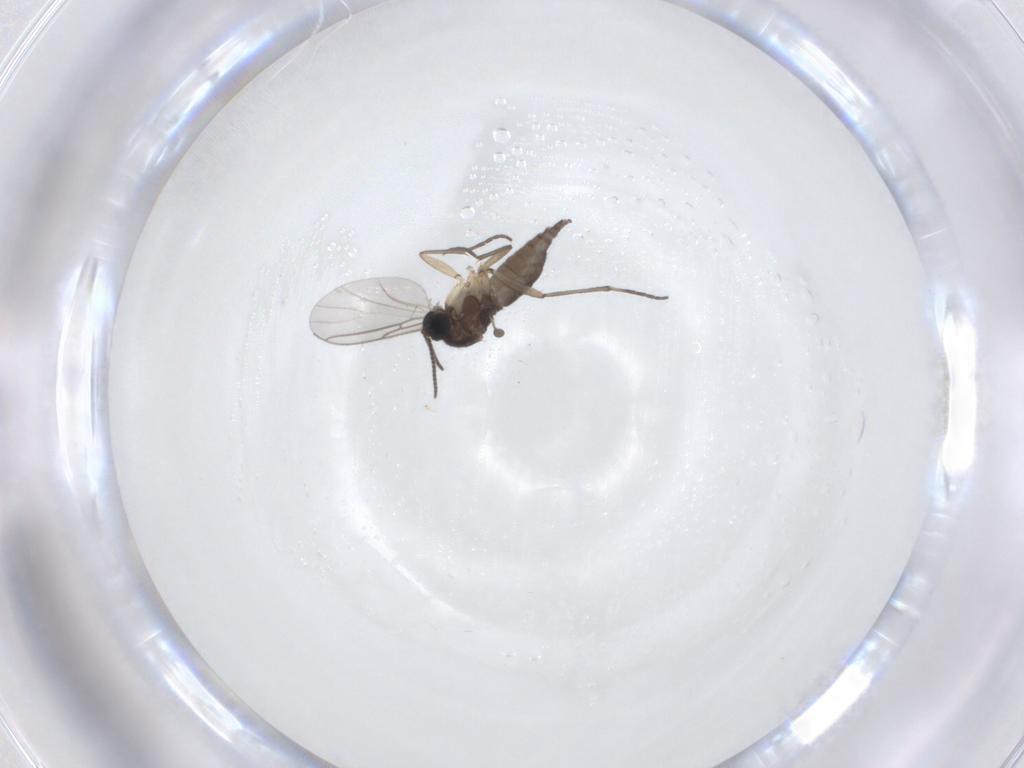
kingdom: Animalia
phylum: Arthropoda
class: Insecta
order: Diptera
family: Sciaridae
